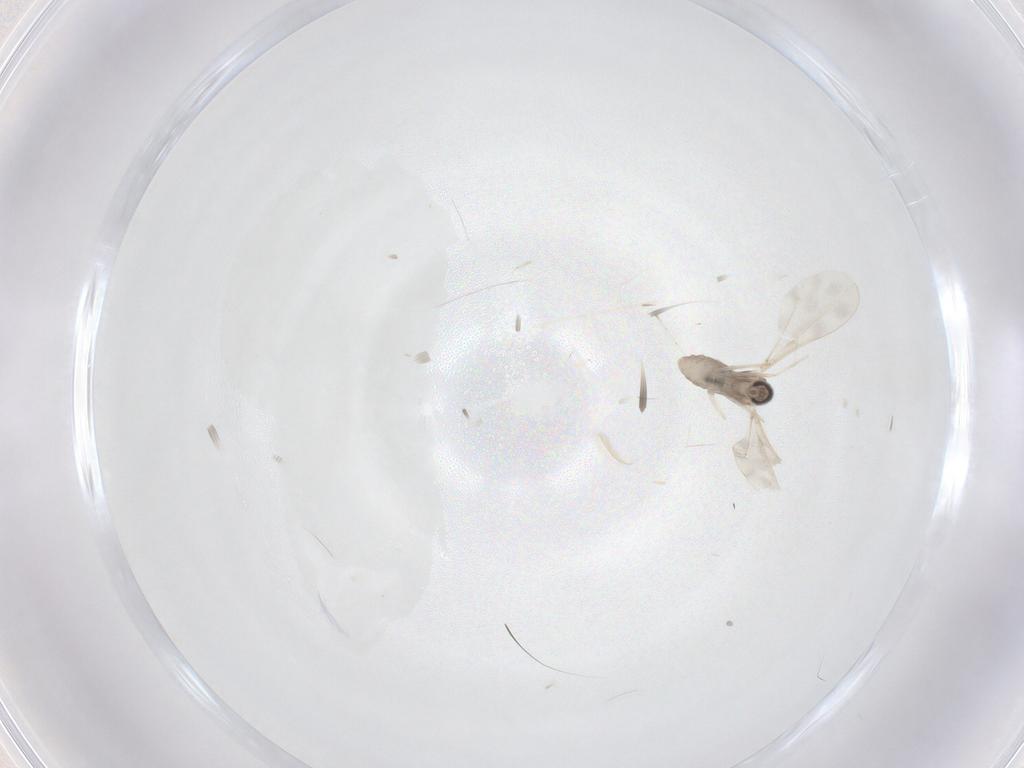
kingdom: Animalia
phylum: Arthropoda
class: Insecta
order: Diptera
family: Cecidomyiidae
